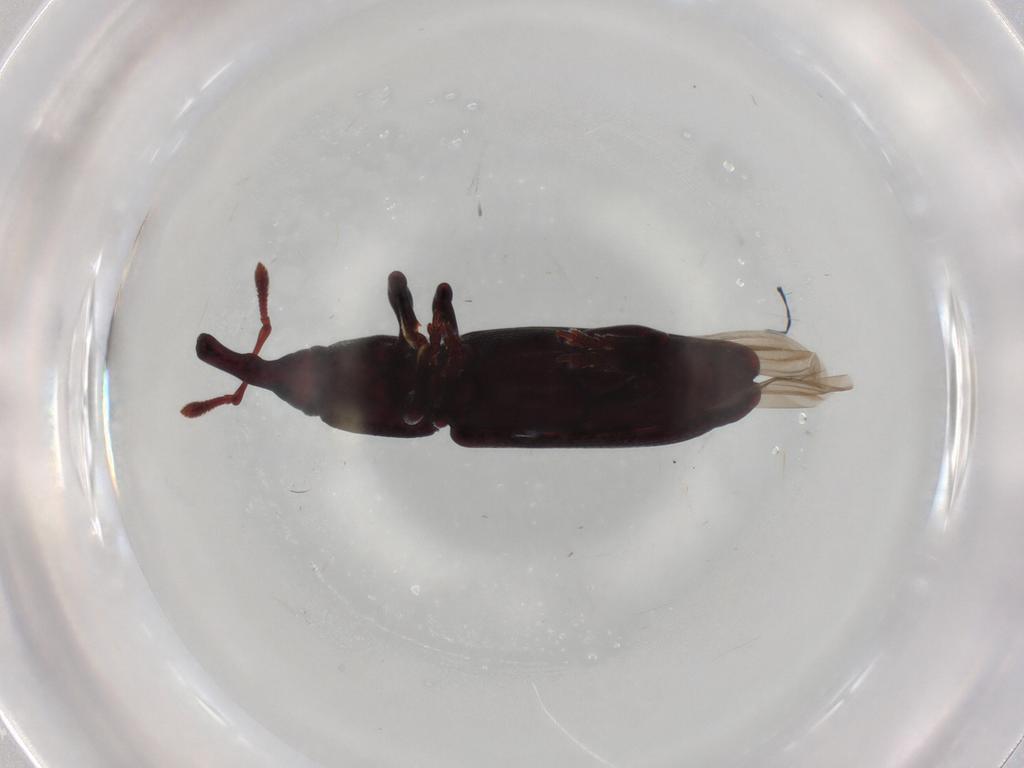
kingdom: Animalia
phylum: Arthropoda
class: Insecta
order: Coleoptera
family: Curculionidae
